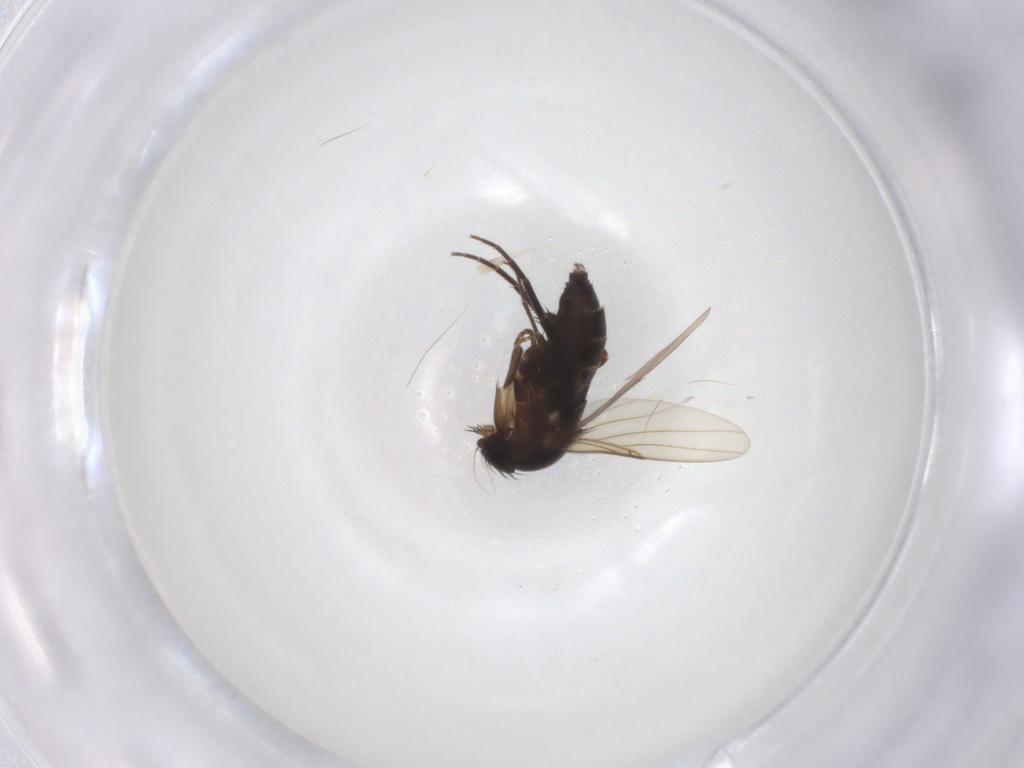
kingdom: Animalia
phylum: Arthropoda
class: Insecta
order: Diptera
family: Phoridae
